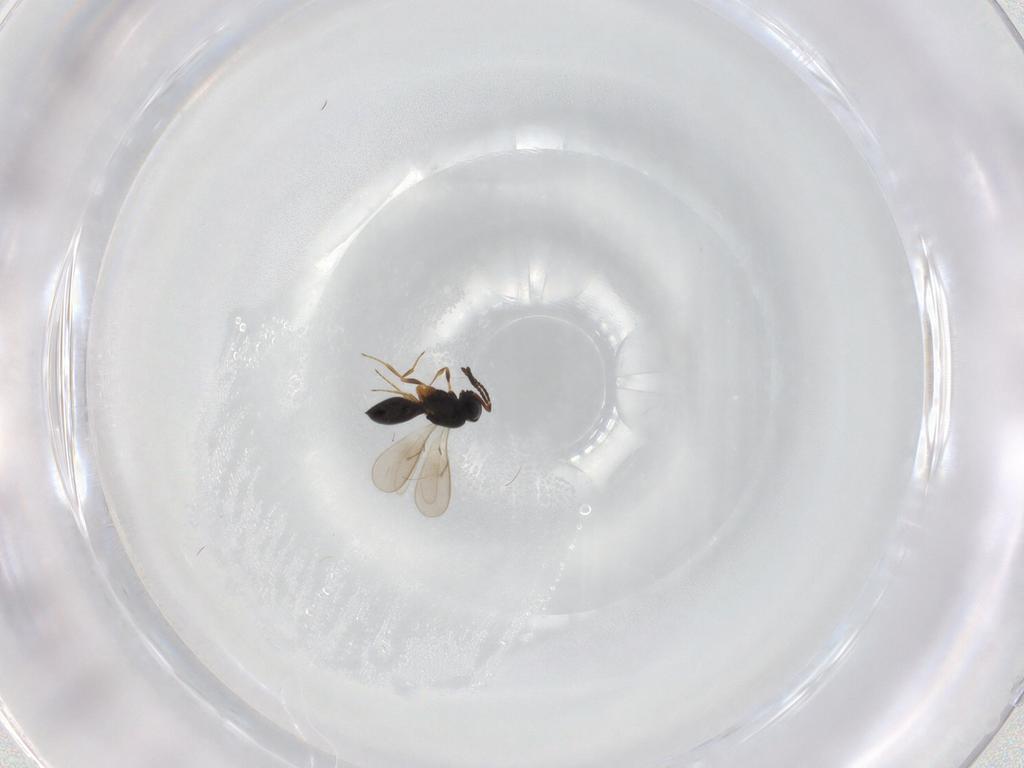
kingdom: Animalia
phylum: Arthropoda
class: Insecta
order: Hymenoptera
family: Scelionidae
